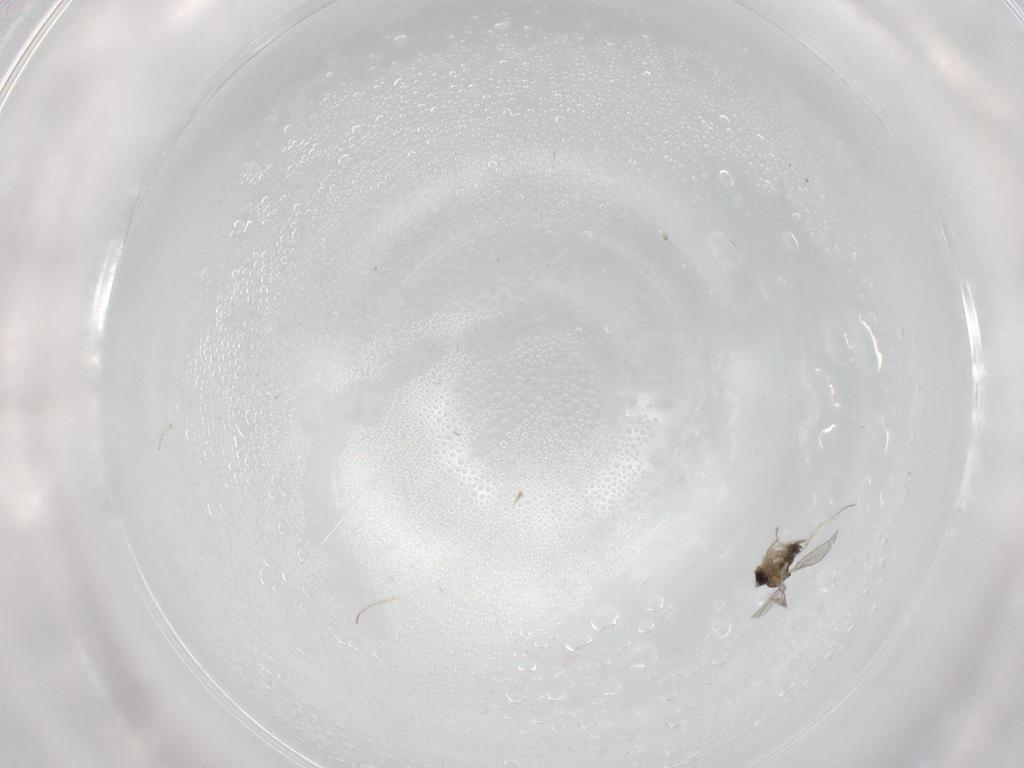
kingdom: Animalia
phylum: Arthropoda
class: Insecta
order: Diptera
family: Cecidomyiidae
